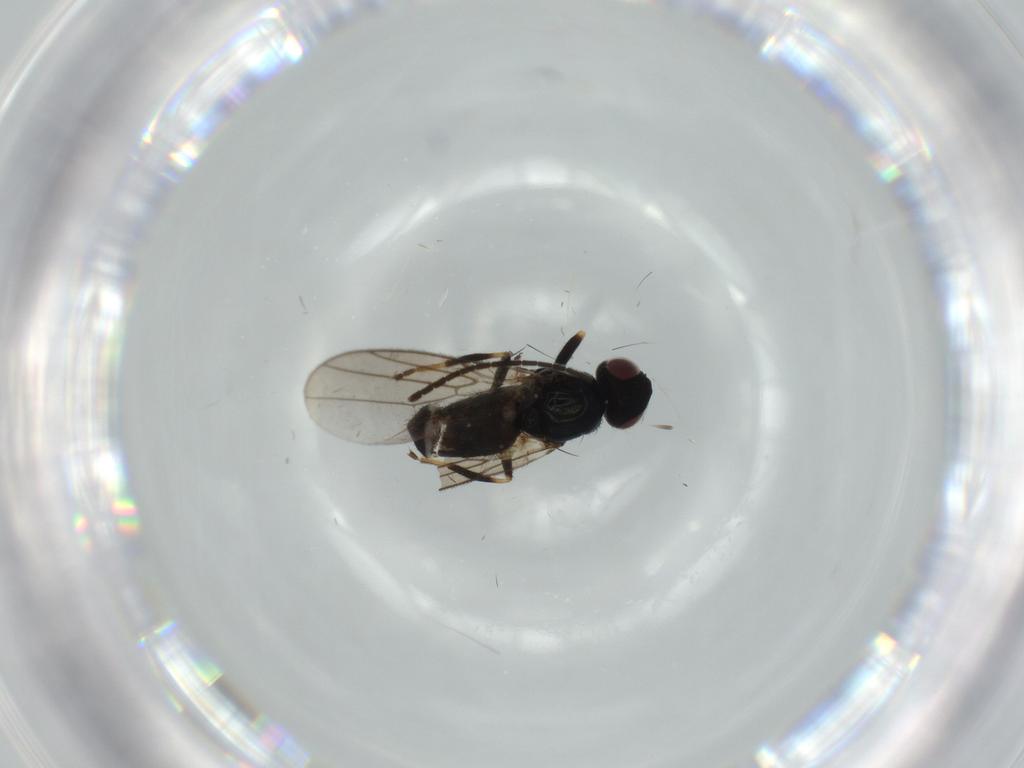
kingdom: Animalia
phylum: Arthropoda
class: Insecta
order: Diptera
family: Chloropidae
